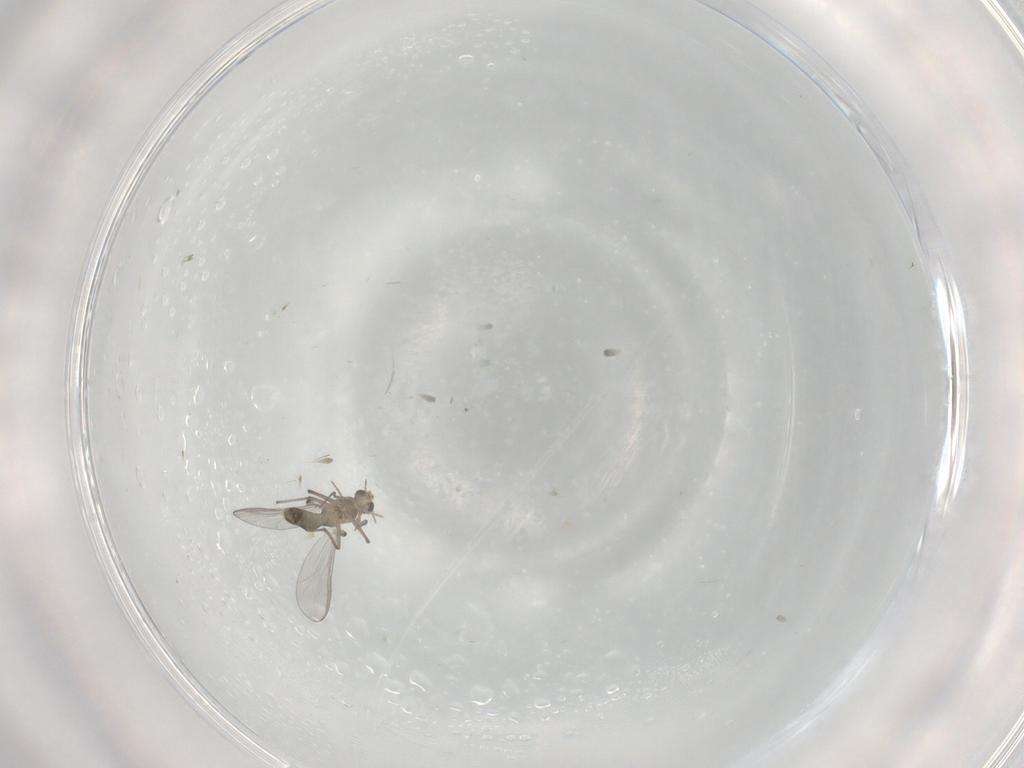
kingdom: Animalia
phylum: Arthropoda
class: Insecta
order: Diptera
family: Chironomidae
